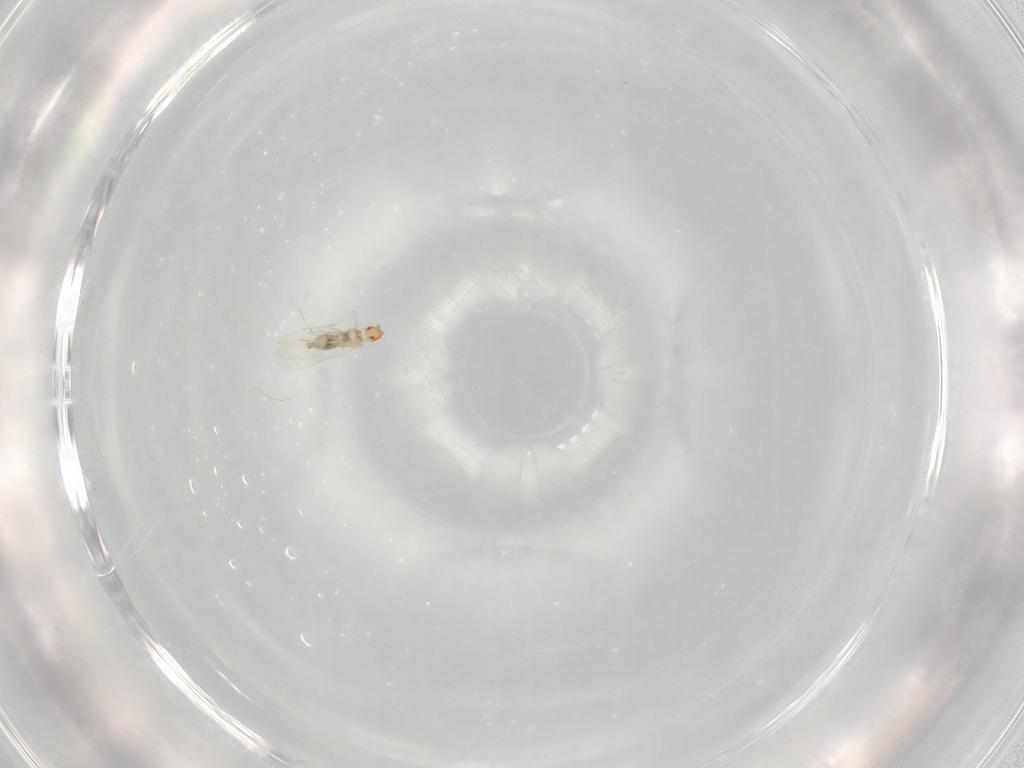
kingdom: Animalia
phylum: Arthropoda
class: Insecta
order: Diptera
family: Cecidomyiidae
